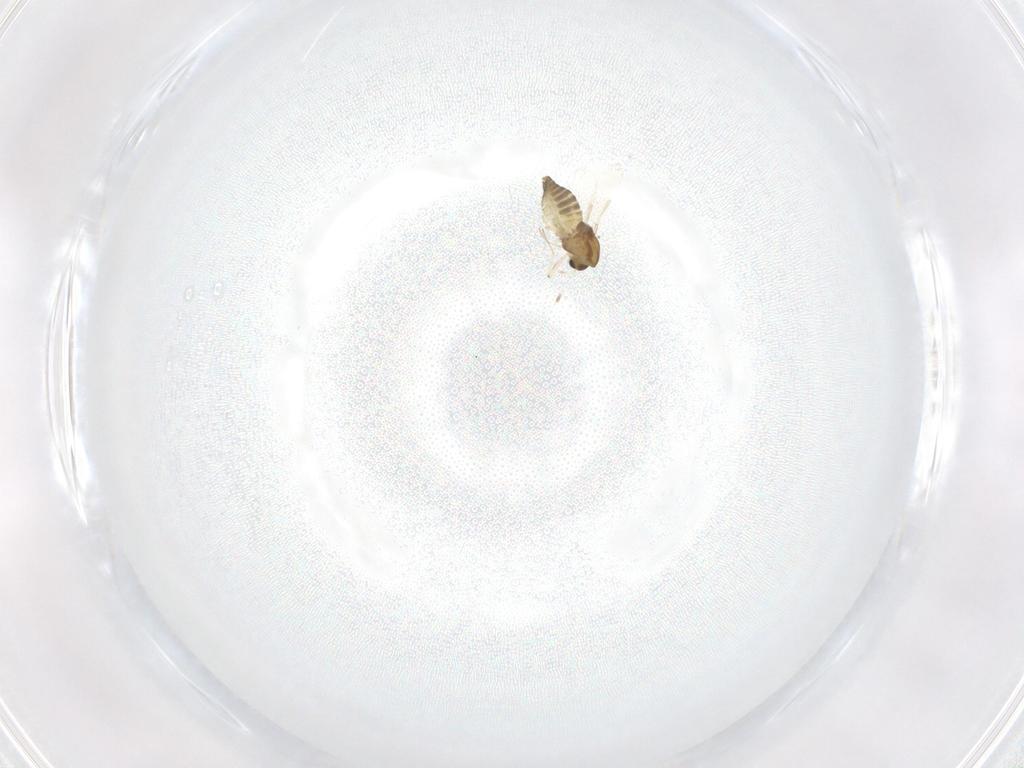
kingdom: Animalia
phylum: Arthropoda
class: Insecta
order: Diptera
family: Chironomidae
